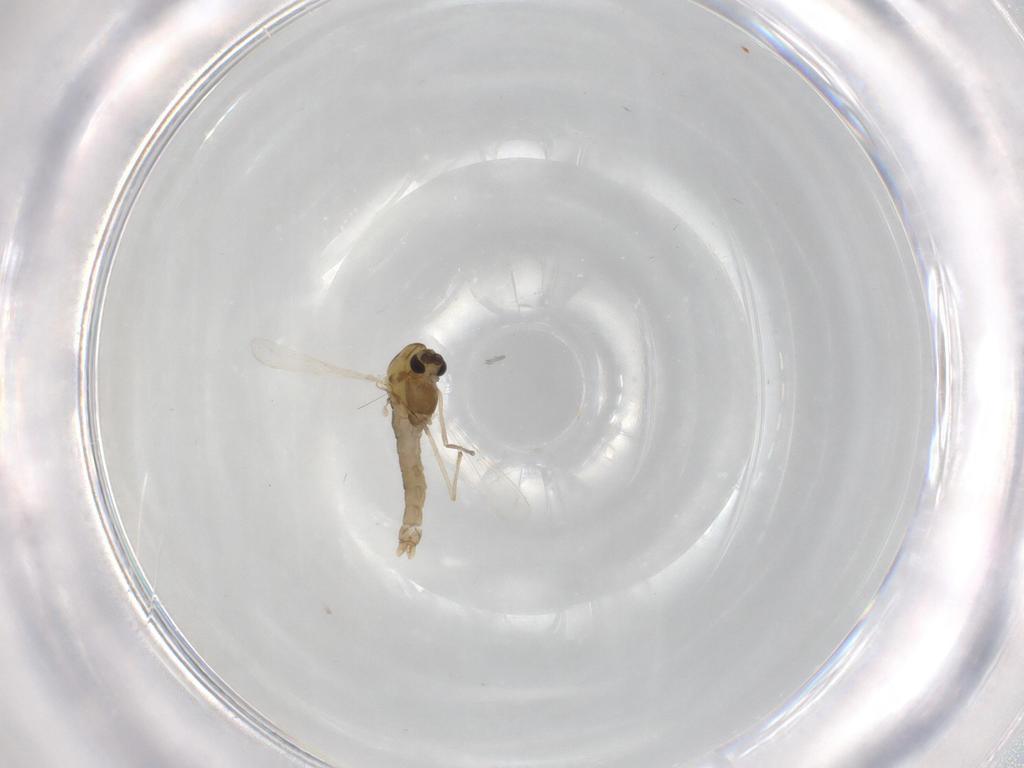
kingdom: Animalia
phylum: Arthropoda
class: Insecta
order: Diptera
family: Chironomidae
